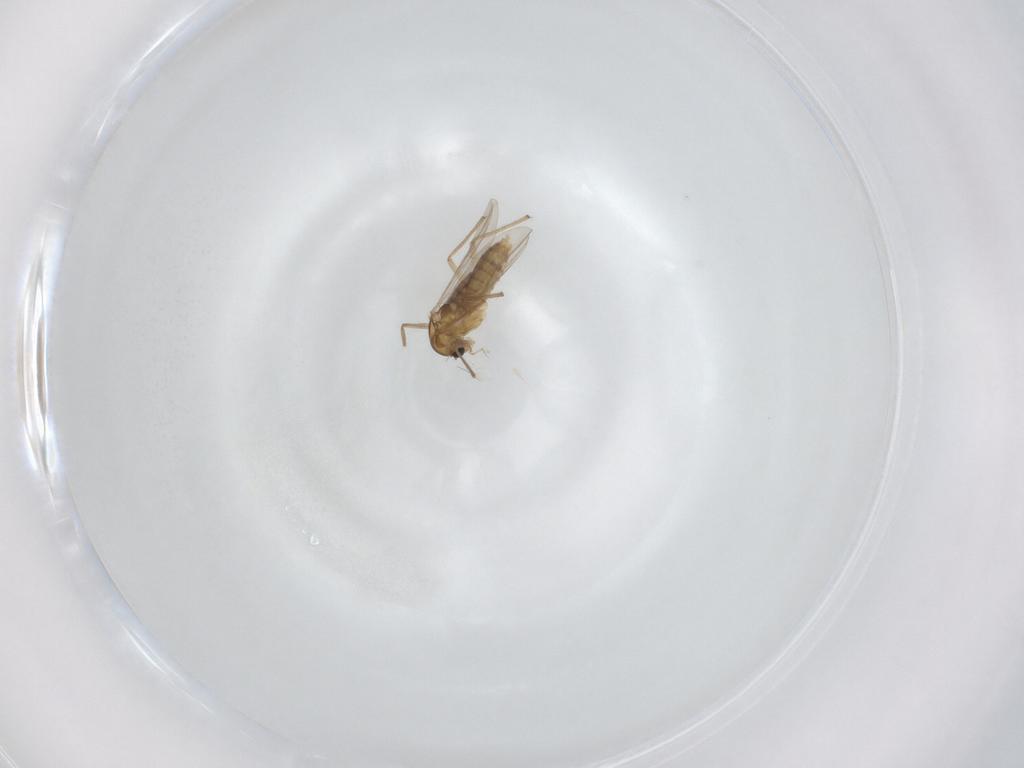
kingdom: Animalia
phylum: Arthropoda
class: Insecta
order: Diptera
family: Chironomidae
